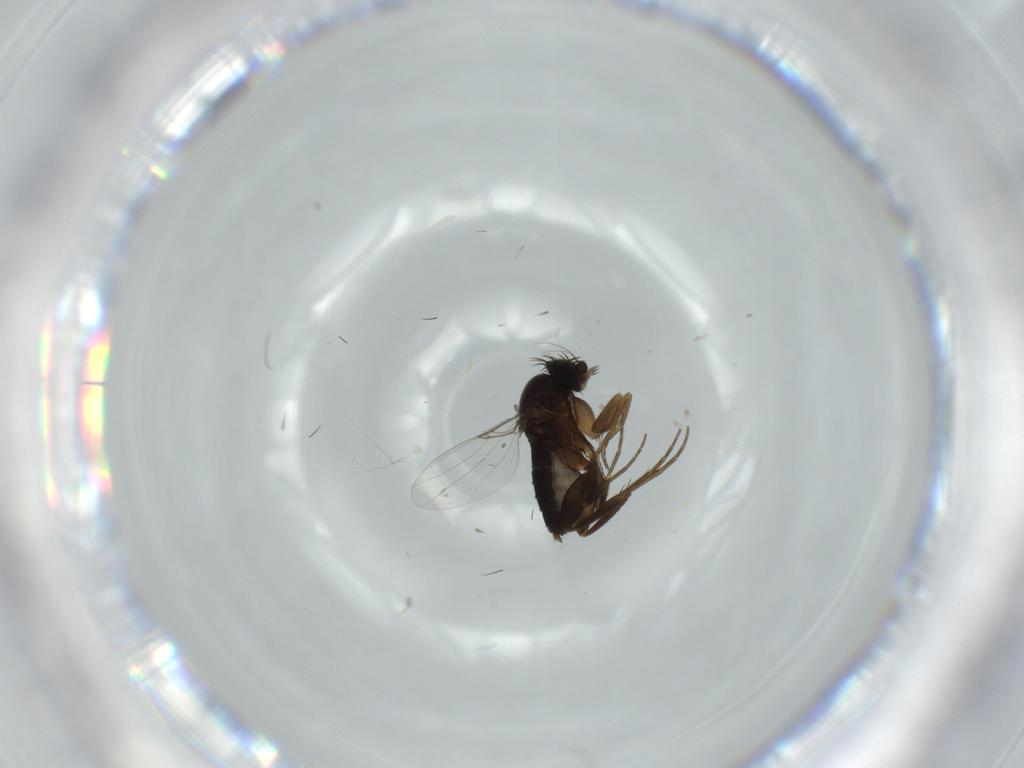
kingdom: Animalia
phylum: Arthropoda
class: Insecta
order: Diptera
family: Phoridae
